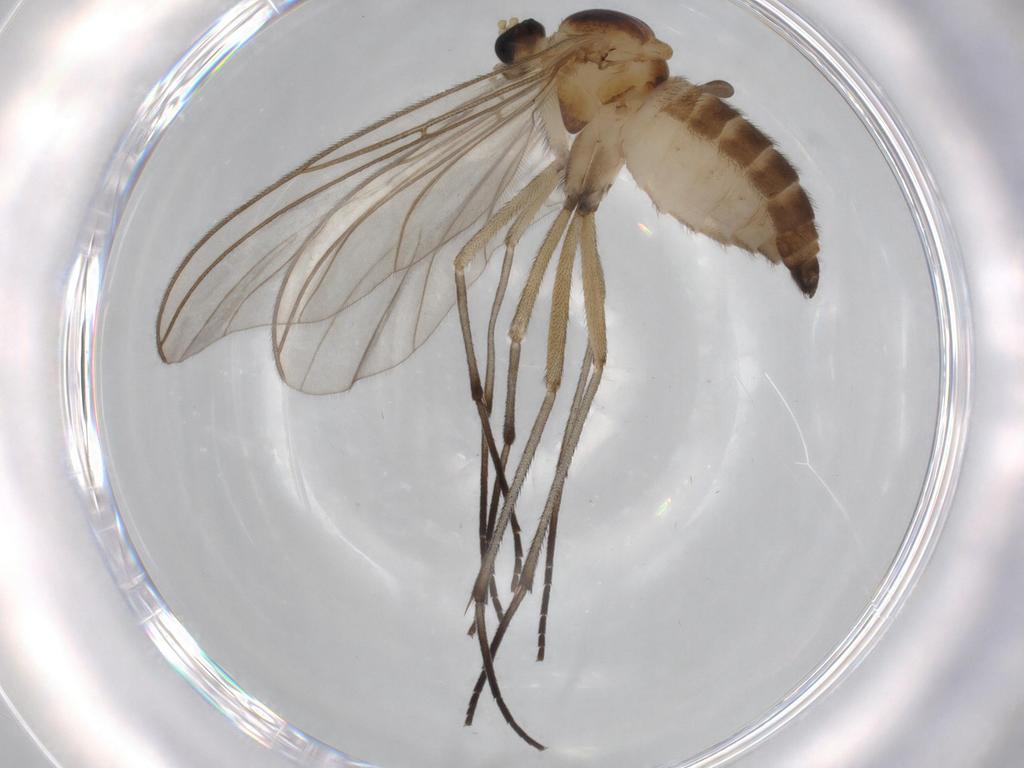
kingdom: Animalia
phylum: Arthropoda
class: Insecta
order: Diptera
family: Sciaridae
